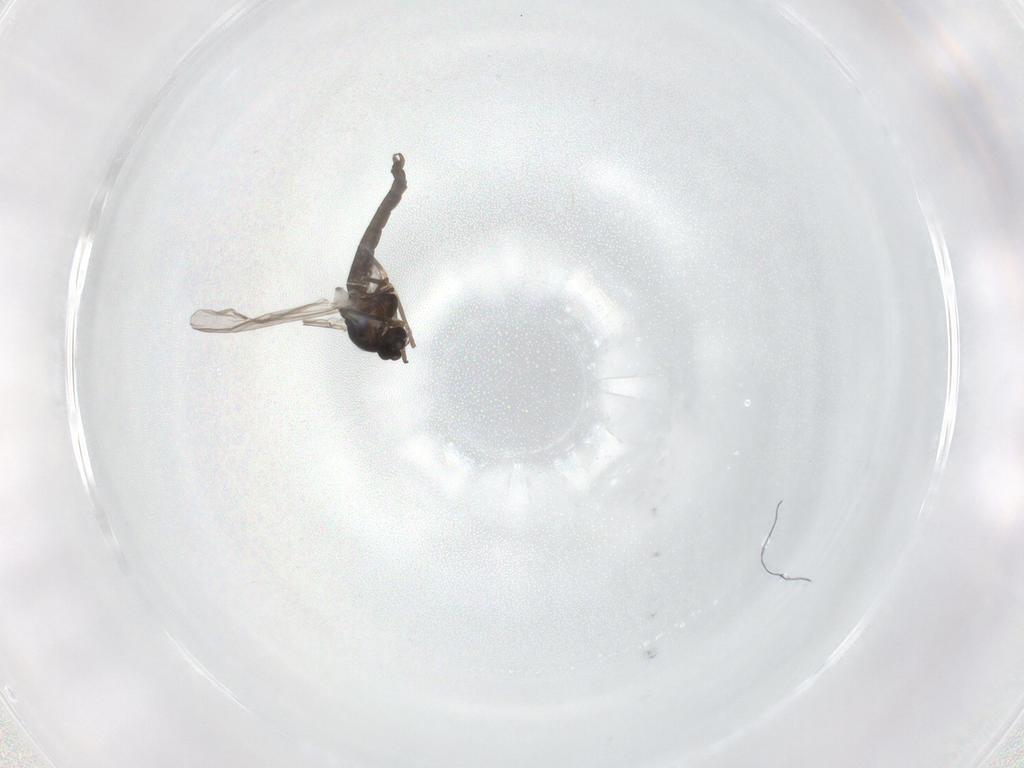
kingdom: Animalia
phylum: Arthropoda
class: Insecta
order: Diptera
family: Chironomidae
